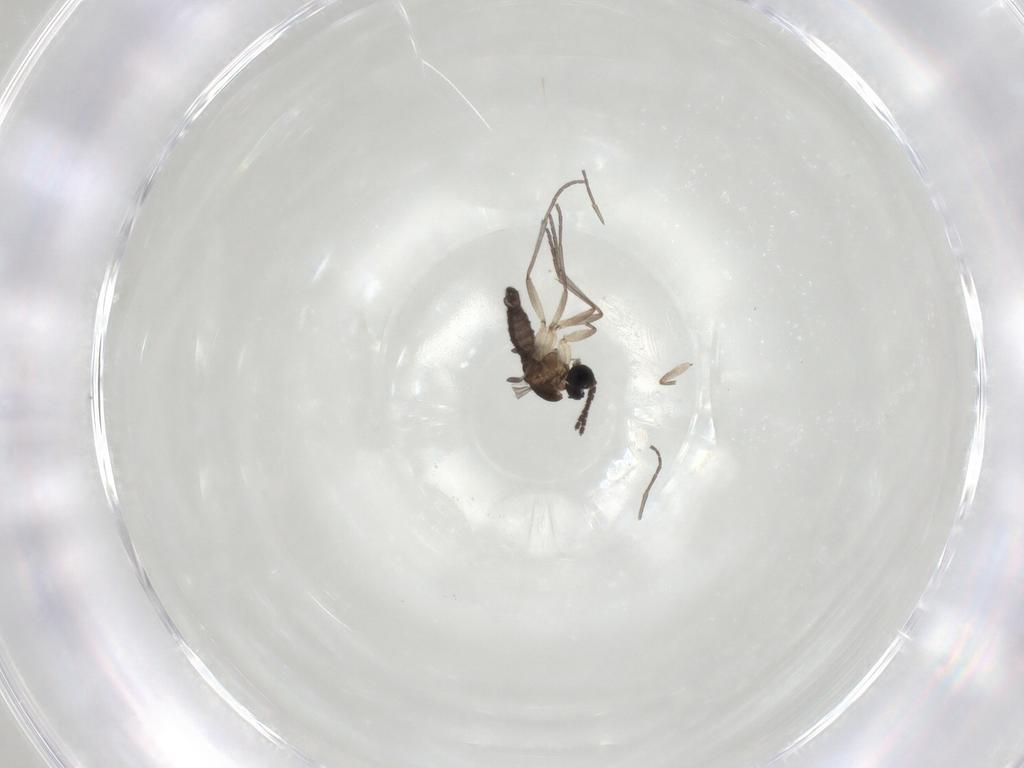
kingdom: Animalia
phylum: Arthropoda
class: Insecta
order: Diptera
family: Sciaridae
